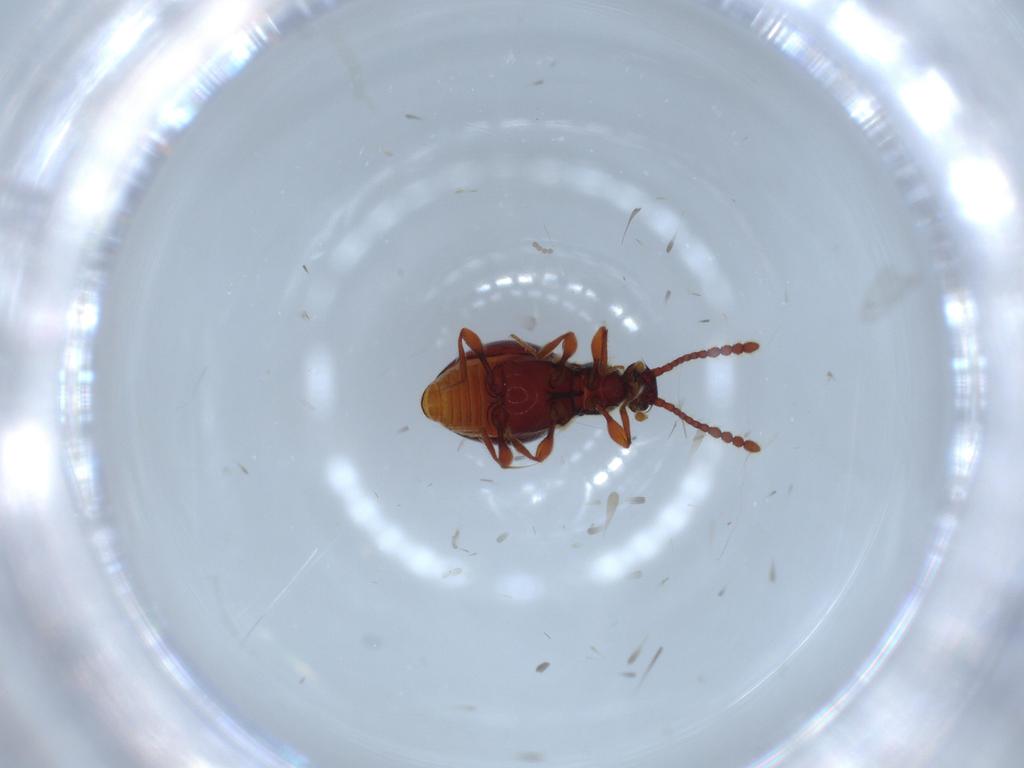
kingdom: Animalia
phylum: Arthropoda
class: Insecta
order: Coleoptera
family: Staphylinidae
